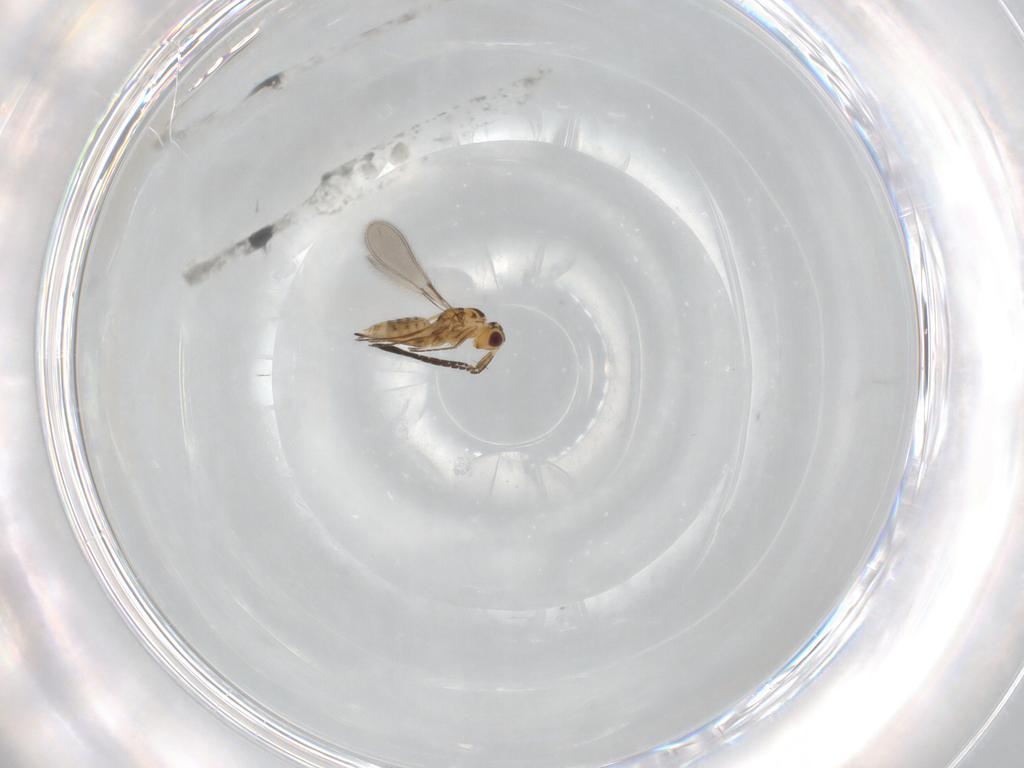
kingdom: Animalia
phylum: Arthropoda
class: Insecta
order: Hymenoptera
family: Mymaridae
